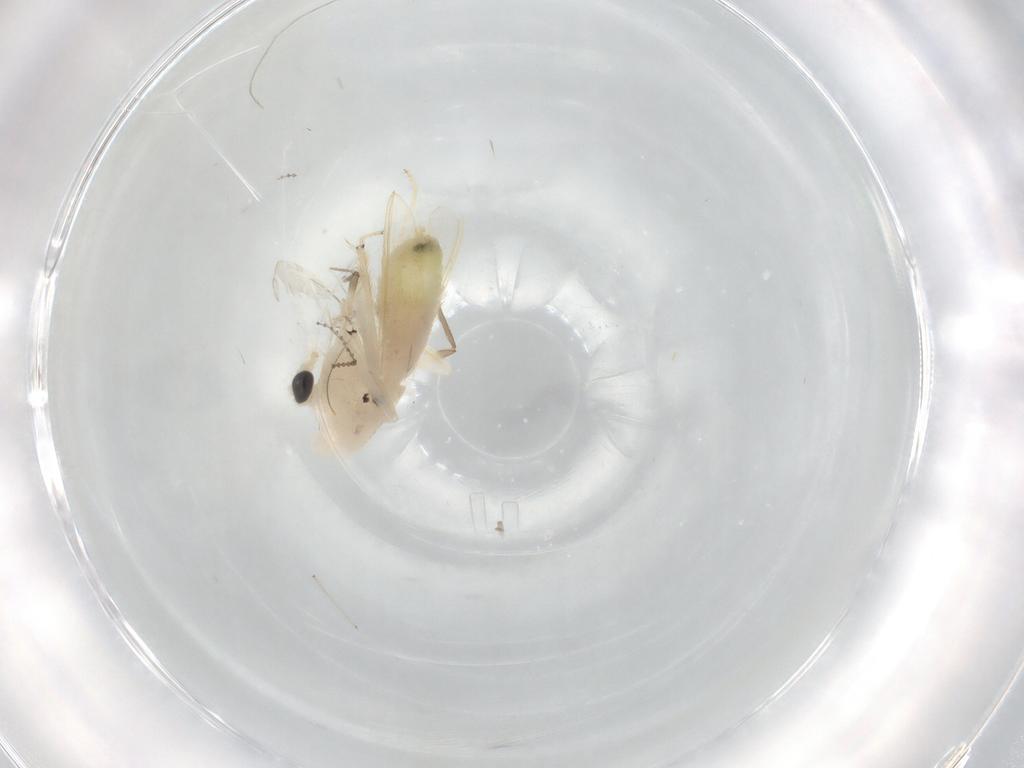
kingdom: Animalia
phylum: Arthropoda
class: Insecta
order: Diptera
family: Chironomidae
